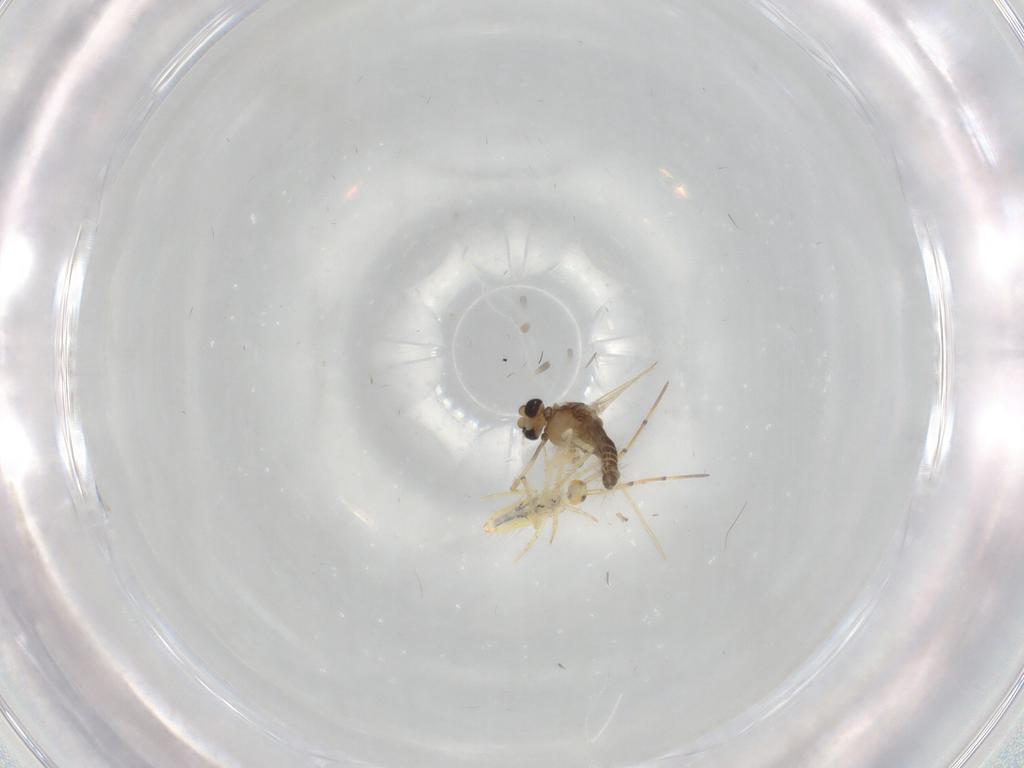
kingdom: Animalia
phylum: Arthropoda
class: Insecta
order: Diptera
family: Chironomidae
